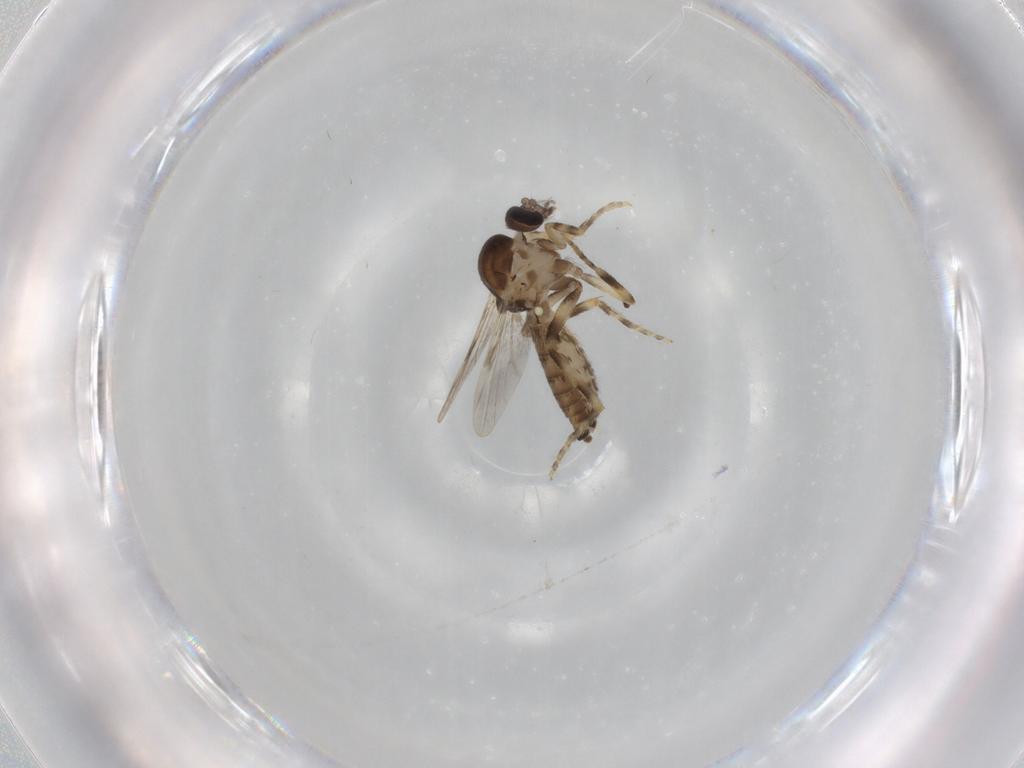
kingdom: Animalia
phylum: Arthropoda
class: Insecta
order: Diptera
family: Ceratopogonidae
